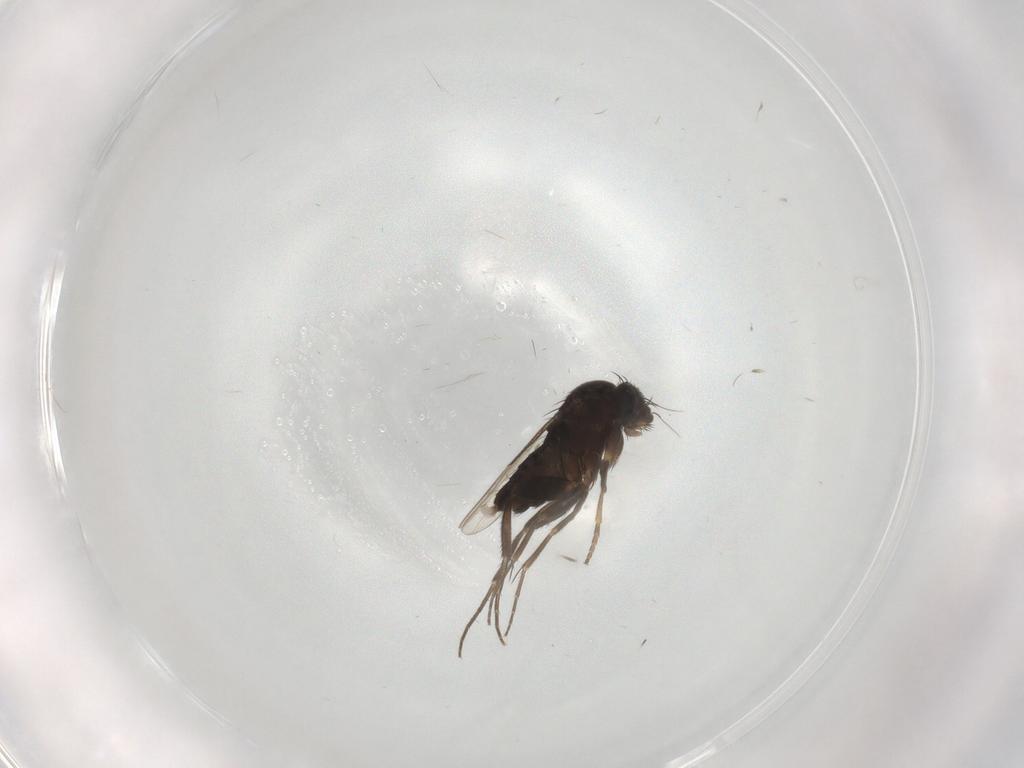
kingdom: Animalia
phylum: Arthropoda
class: Insecta
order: Diptera
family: Phoridae
